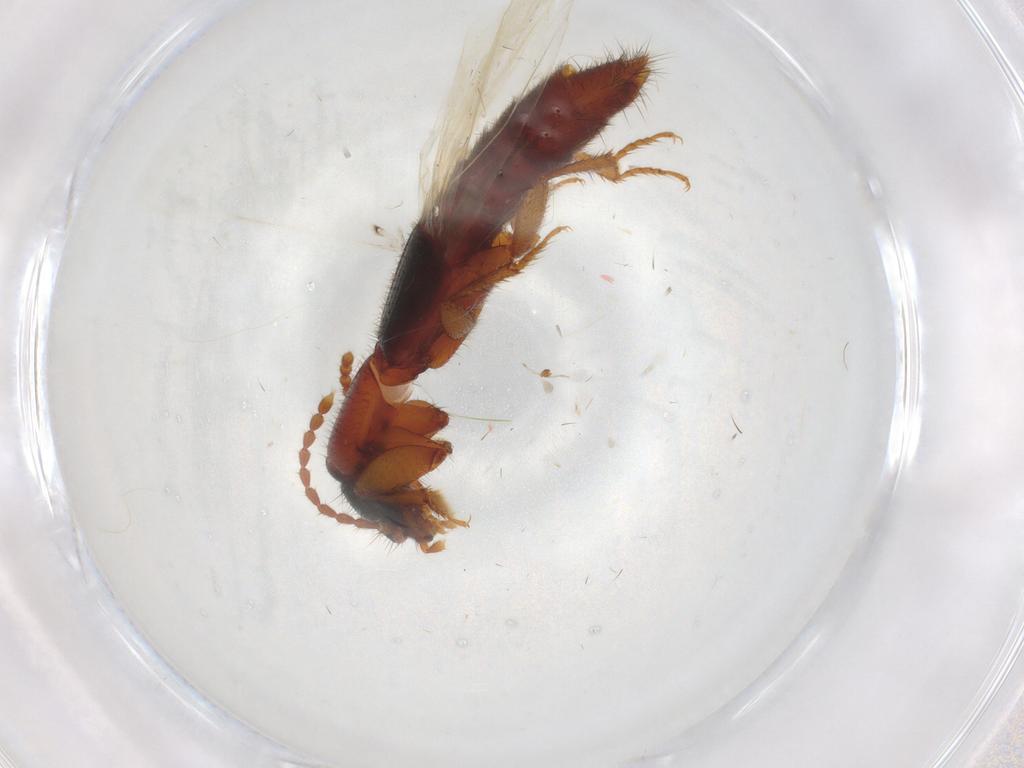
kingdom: Animalia
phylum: Arthropoda
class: Insecta
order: Coleoptera
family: Staphylinidae
